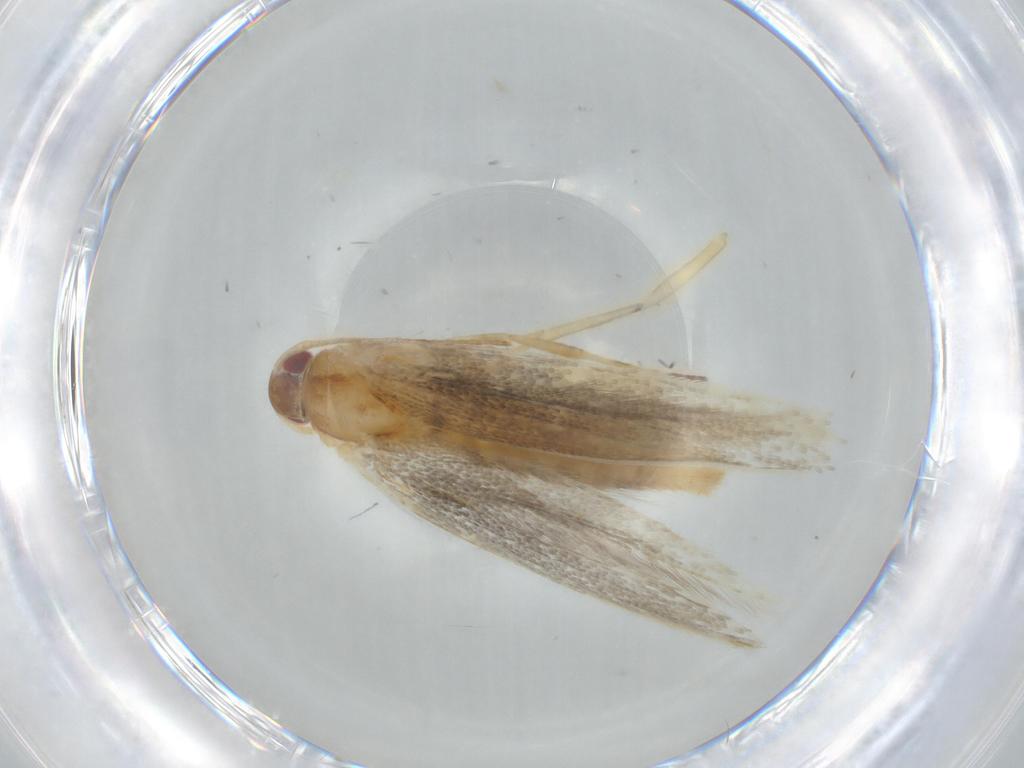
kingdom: Animalia
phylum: Arthropoda
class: Insecta
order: Lepidoptera
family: Cosmopterigidae
